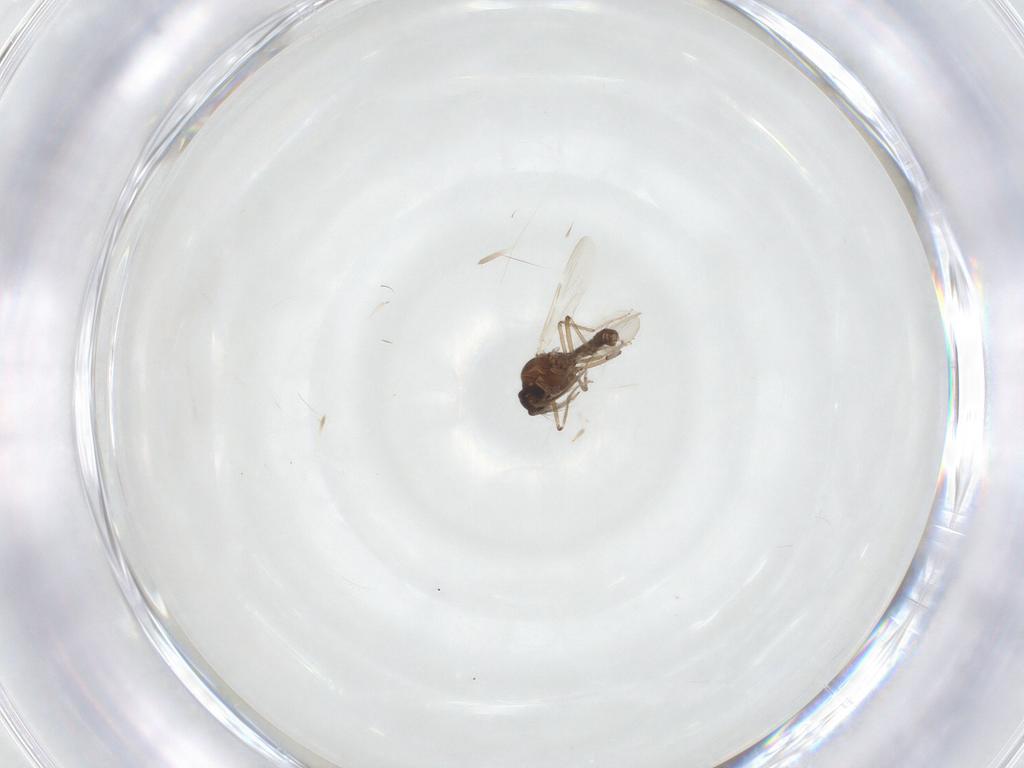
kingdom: Animalia
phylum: Arthropoda
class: Insecta
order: Diptera
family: Ceratopogonidae
